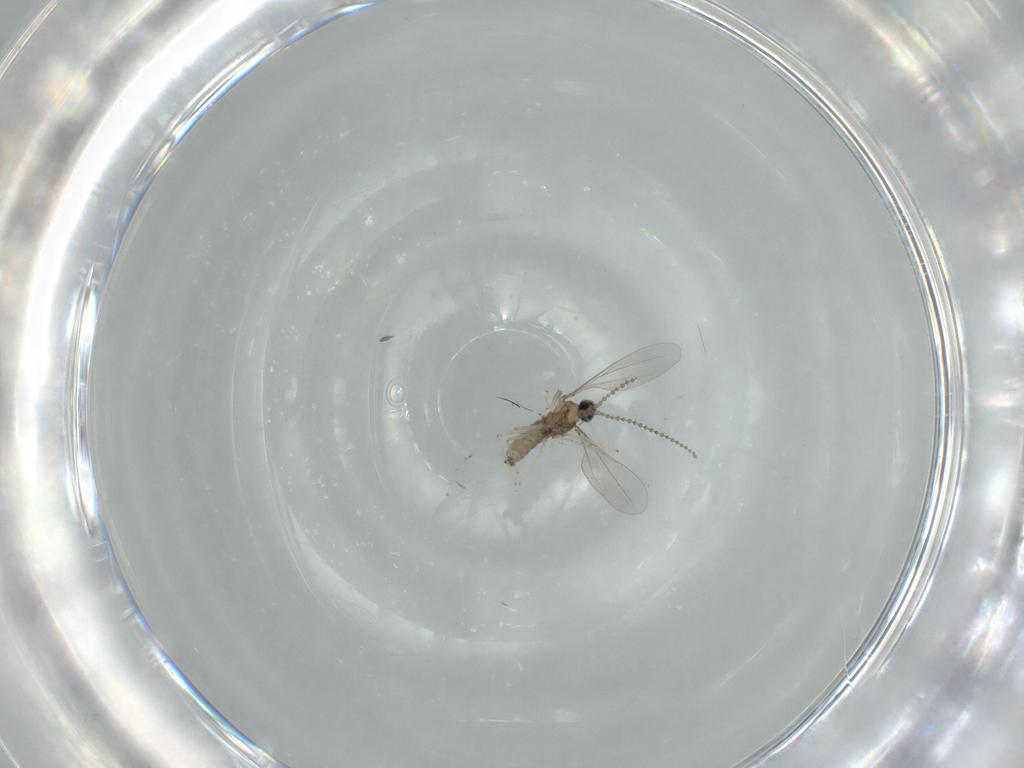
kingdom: Animalia
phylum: Arthropoda
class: Insecta
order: Diptera
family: Cecidomyiidae
